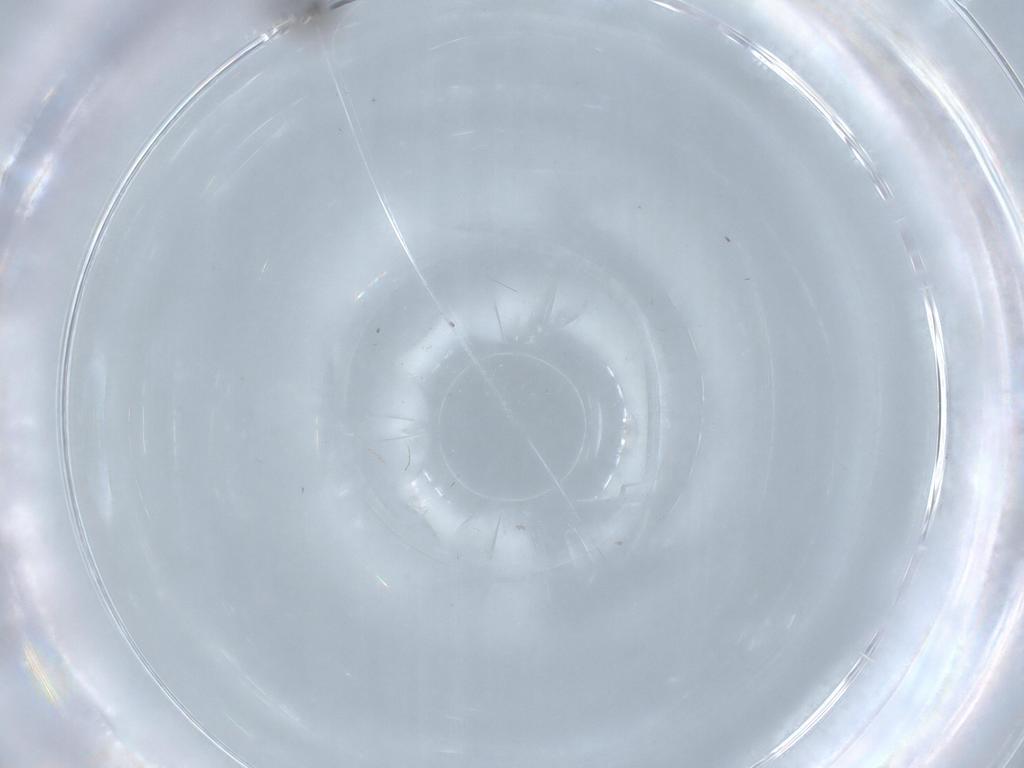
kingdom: Animalia
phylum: Arthropoda
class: Insecta
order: Diptera
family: Cecidomyiidae
